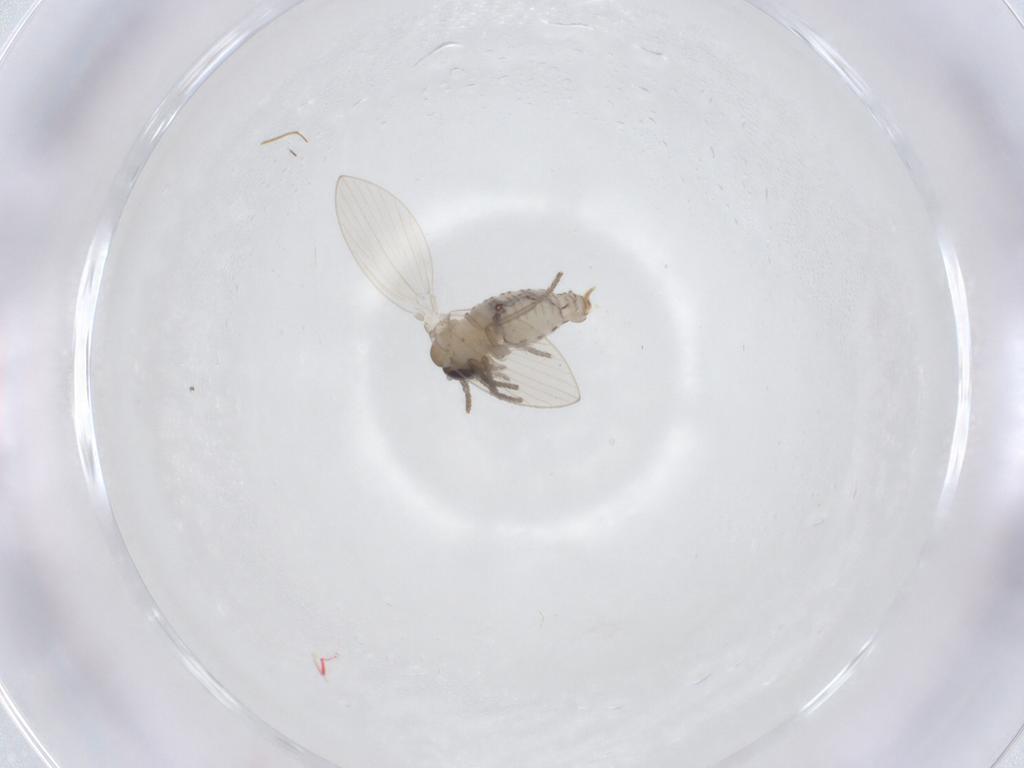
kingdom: Animalia
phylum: Arthropoda
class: Insecta
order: Diptera
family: Psychodidae
